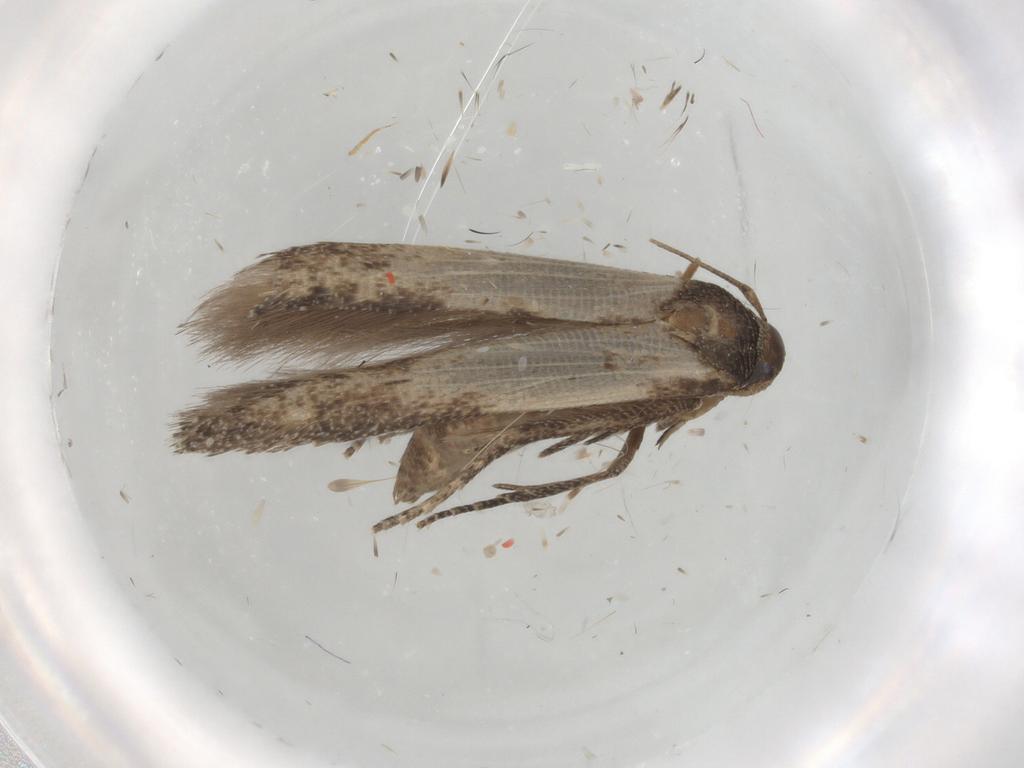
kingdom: Animalia
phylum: Arthropoda
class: Insecta
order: Lepidoptera
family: Cosmopterigidae
